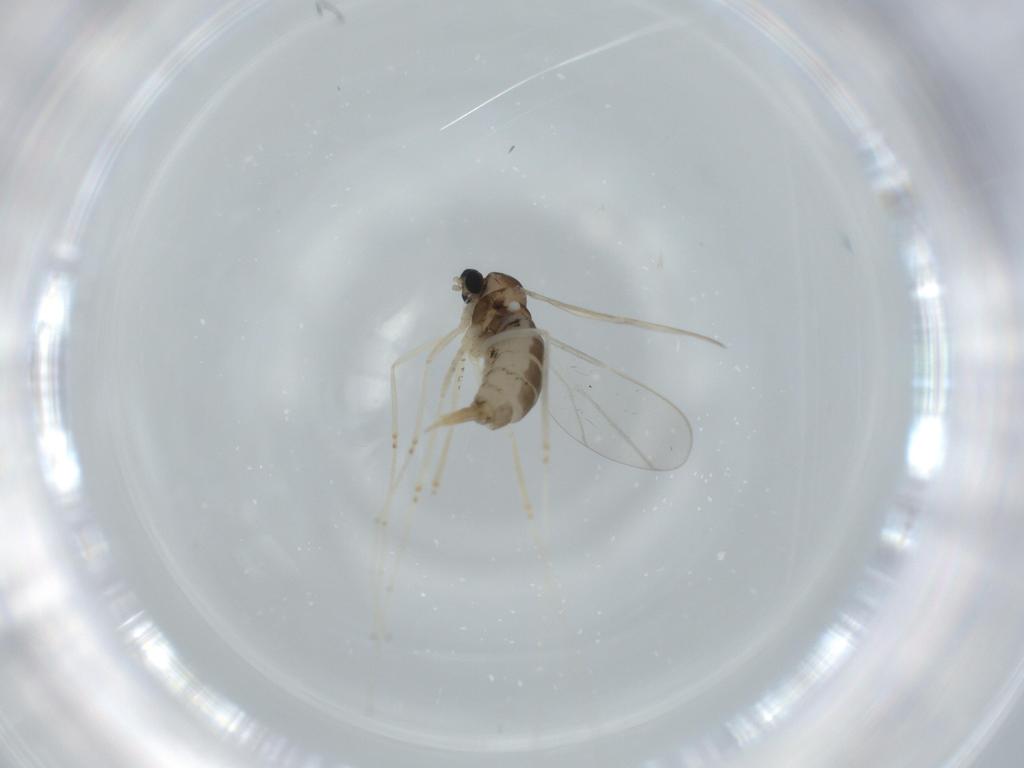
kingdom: Animalia
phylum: Arthropoda
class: Insecta
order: Diptera
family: Cecidomyiidae
